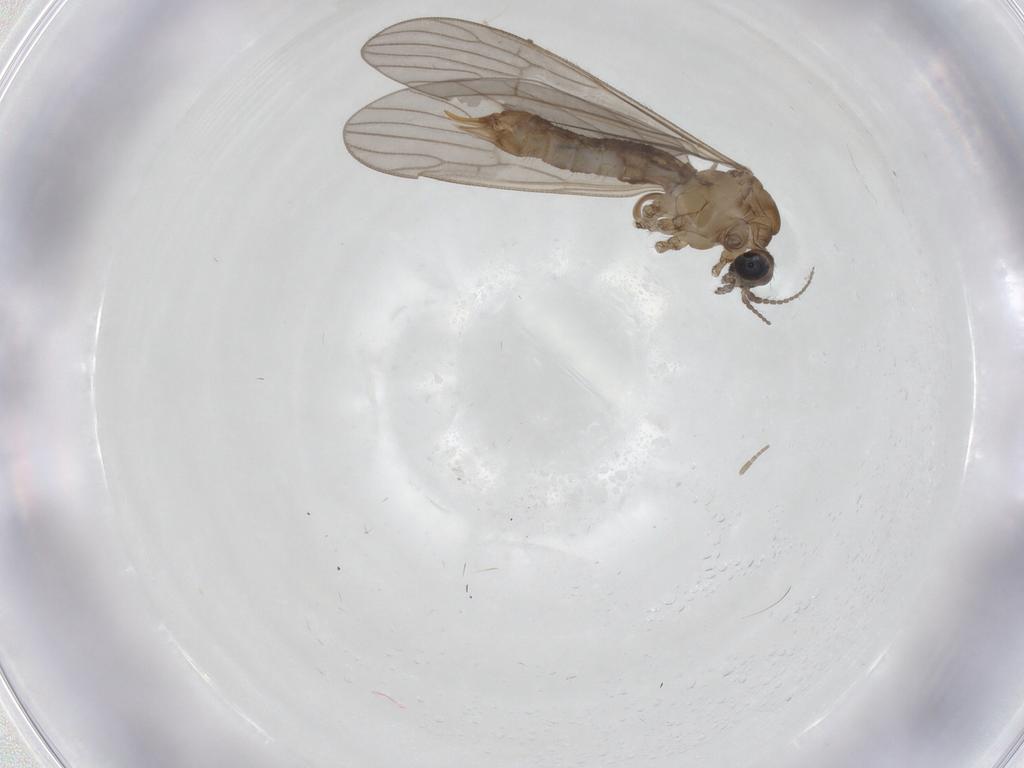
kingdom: Animalia
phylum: Arthropoda
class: Insecta
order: Diptera
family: Limoniidae
